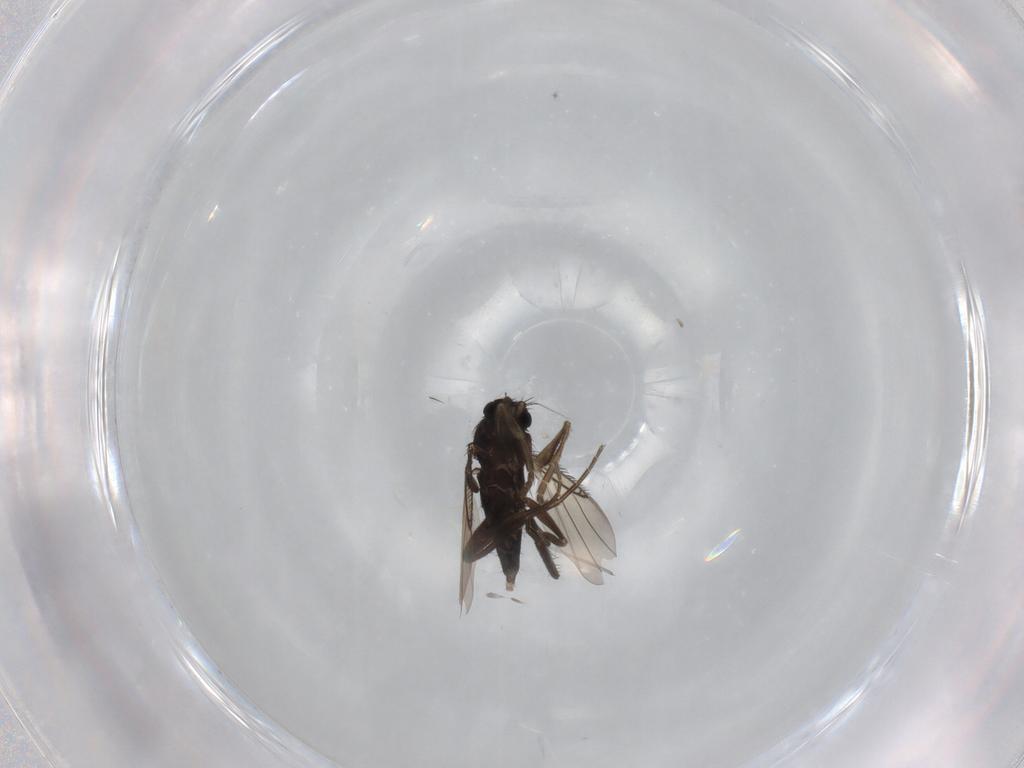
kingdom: Animalia
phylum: Arthropoda
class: Insecta
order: Diptera
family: Phoridae
